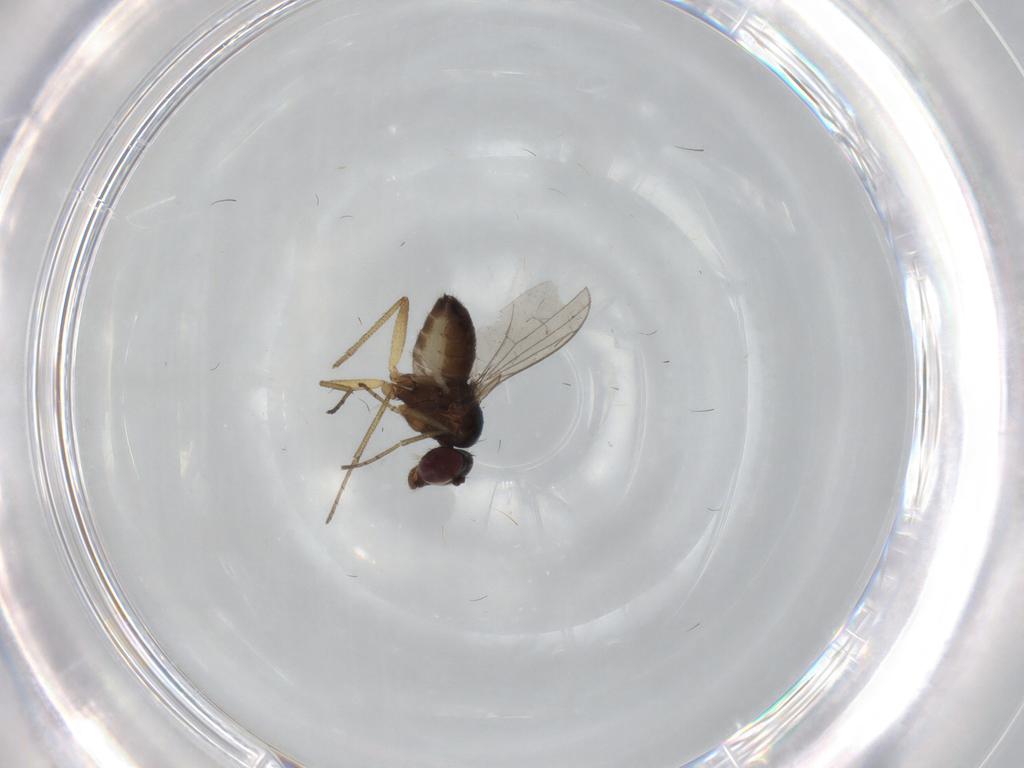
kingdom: Animalia
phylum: Arthropoda
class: Insecta
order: Diptera
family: Dolichopodidae
